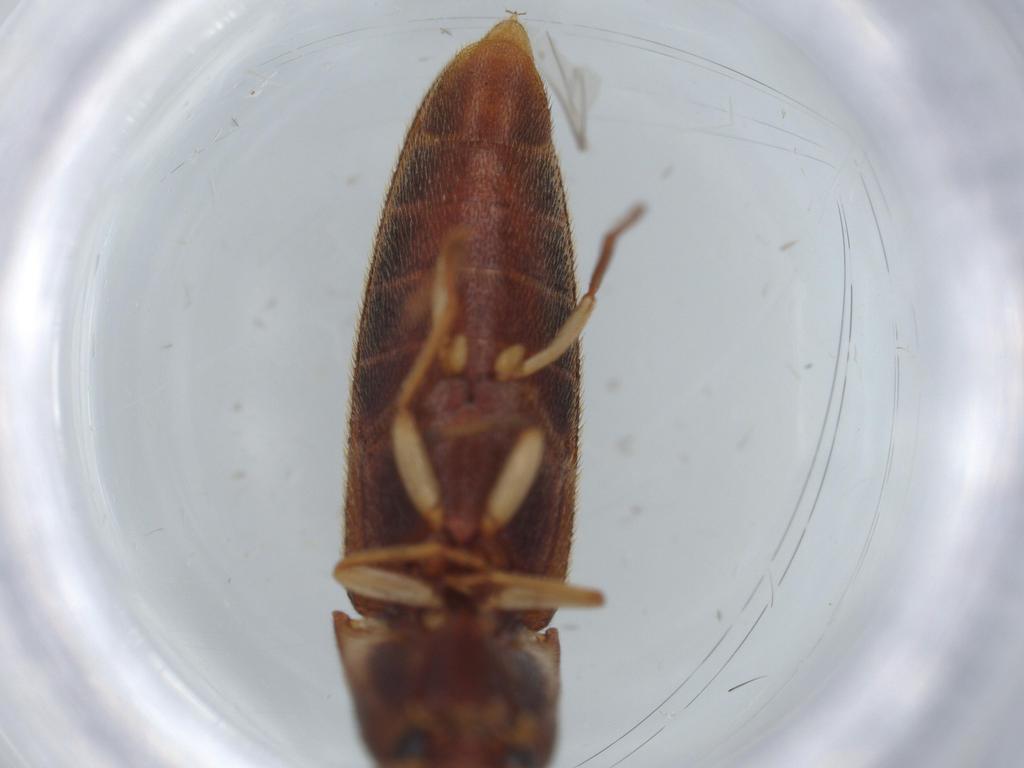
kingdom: Animalia
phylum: Arthropoda
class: Insecta
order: Coleoptera
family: Elateridae
